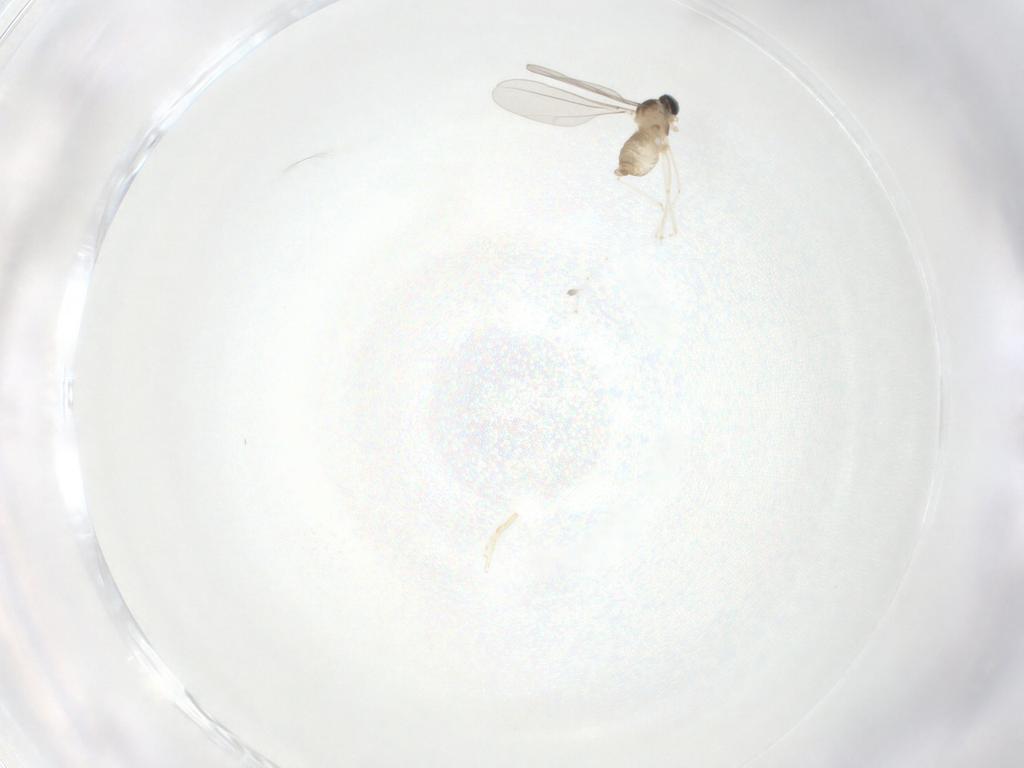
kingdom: Animalia
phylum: Arthropoda
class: Insecta
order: Diptera
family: Cecidomyiidae
